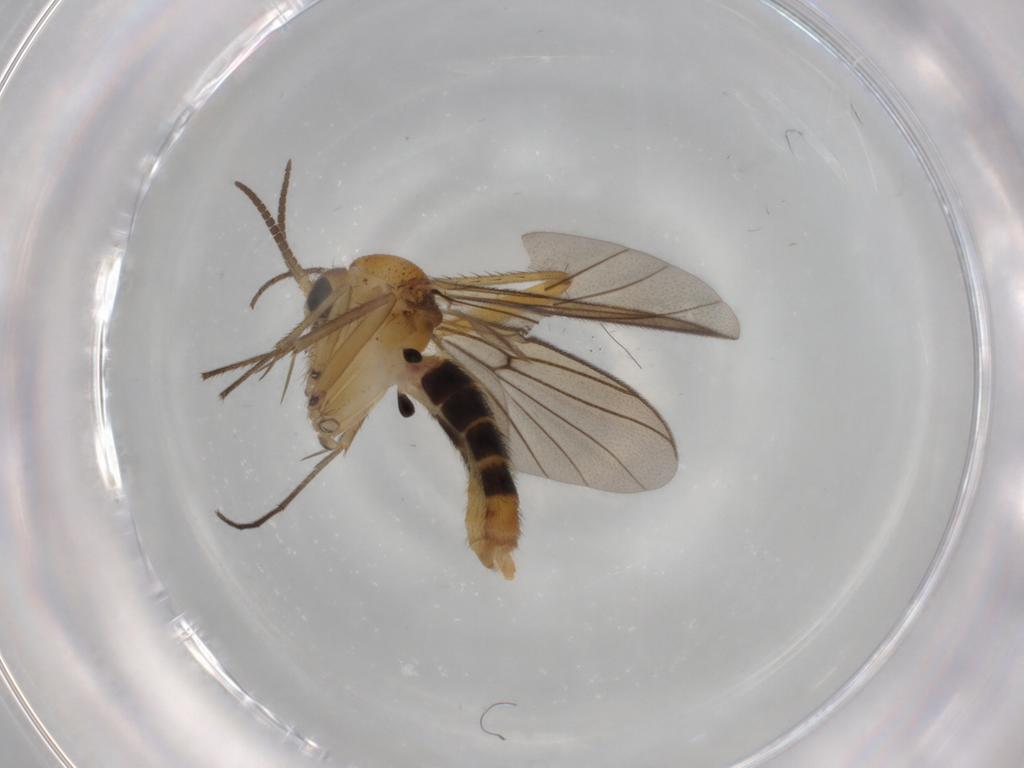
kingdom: Animalia
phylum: Arthropoda
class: Insecta
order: Diptera
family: Mycetophilidae
